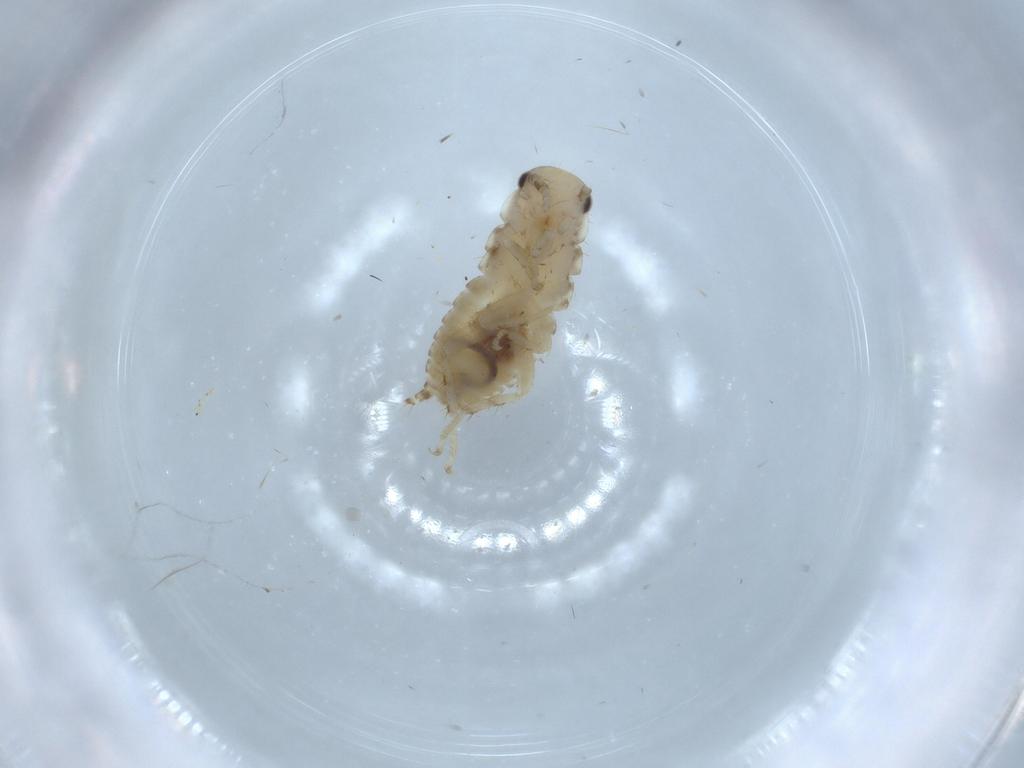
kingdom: Animalia
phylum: Arthropoda
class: Insecta
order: Blattodea
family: Ectobiidae
